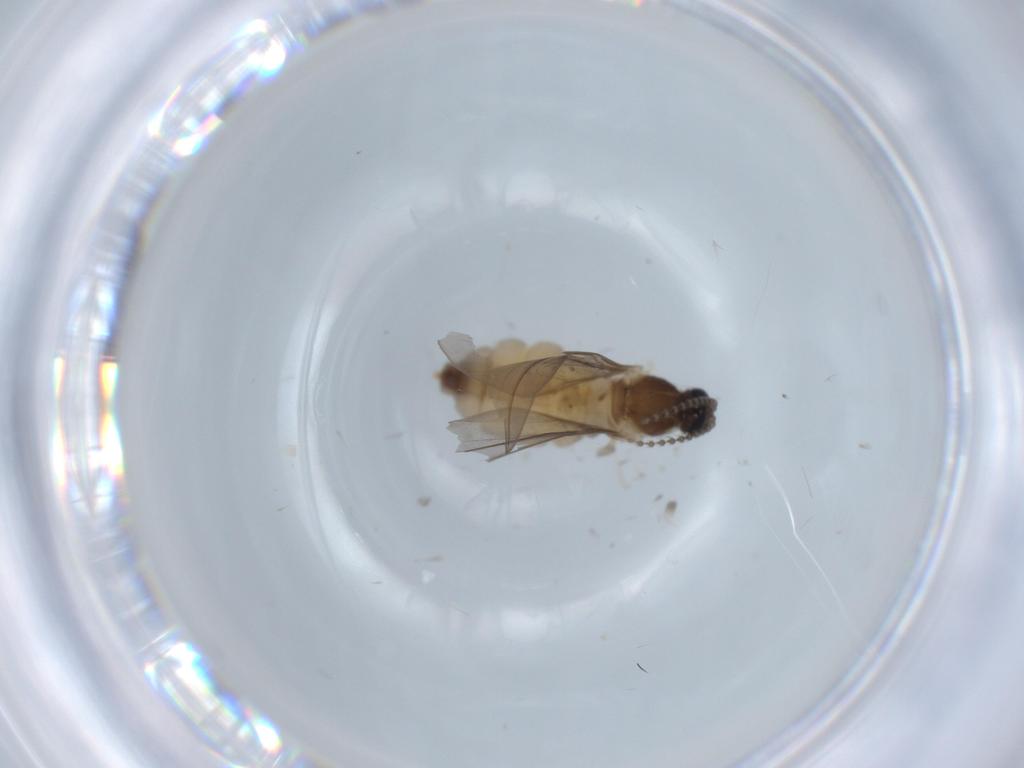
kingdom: Animalia
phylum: Arthropoda
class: Insecta
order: Diptera
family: Cecidomyiidae
